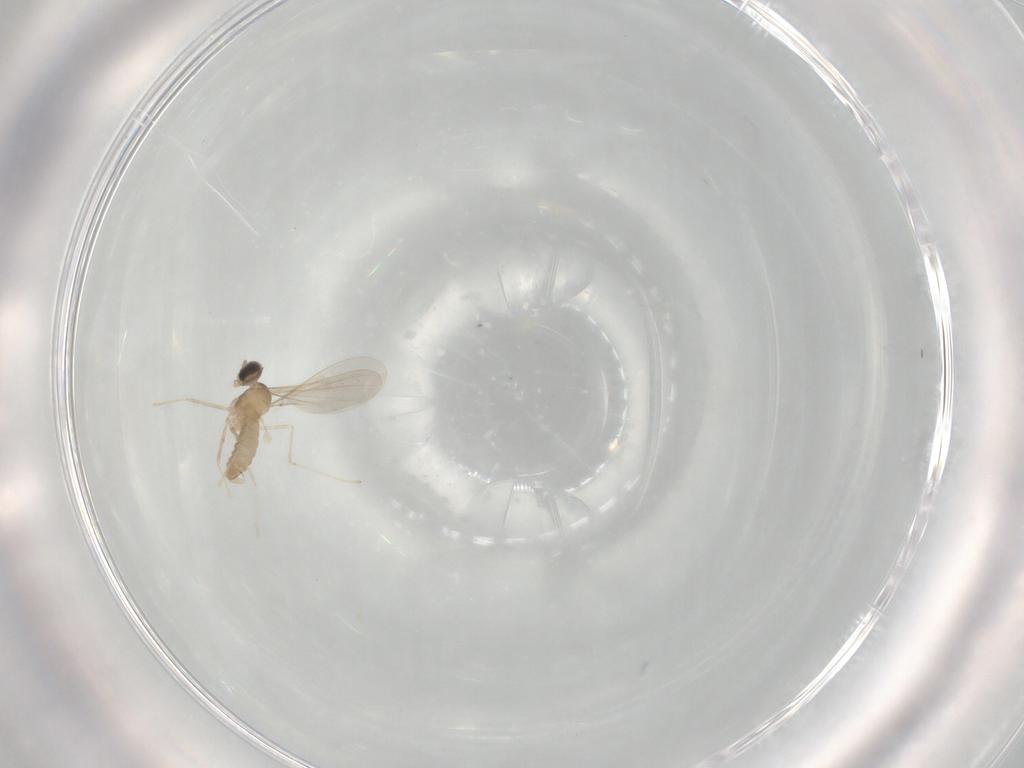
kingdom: Animalia
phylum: Arthropoda
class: Insecta
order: Diptera
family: Cecidomyiidae
